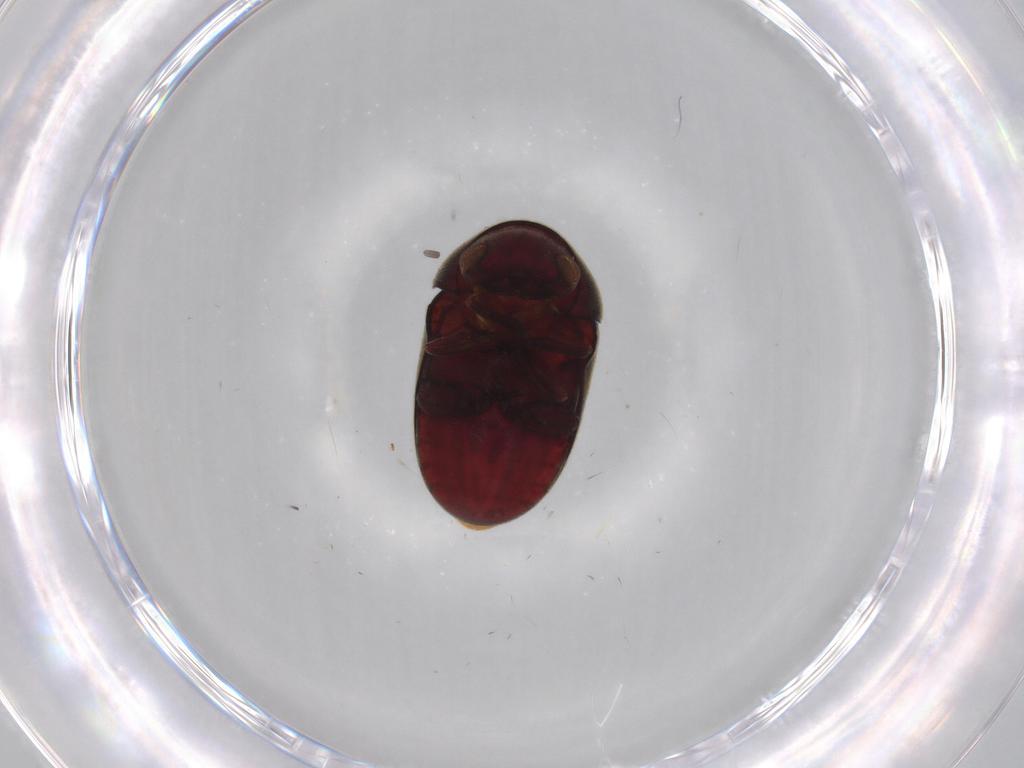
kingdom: Animalia
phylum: Arthropoda
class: Insecta
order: Coleoptera
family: Ptinidae
